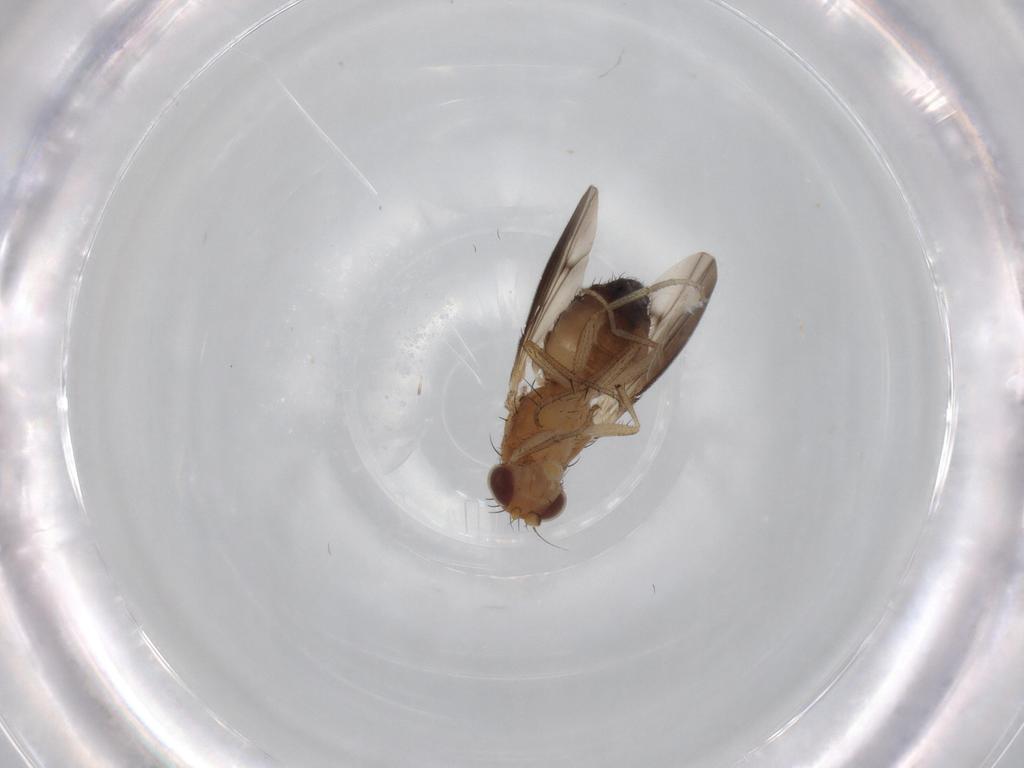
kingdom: Animalia
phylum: Arthropoda
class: Insecta
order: Diptera
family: Heleomyzidae
